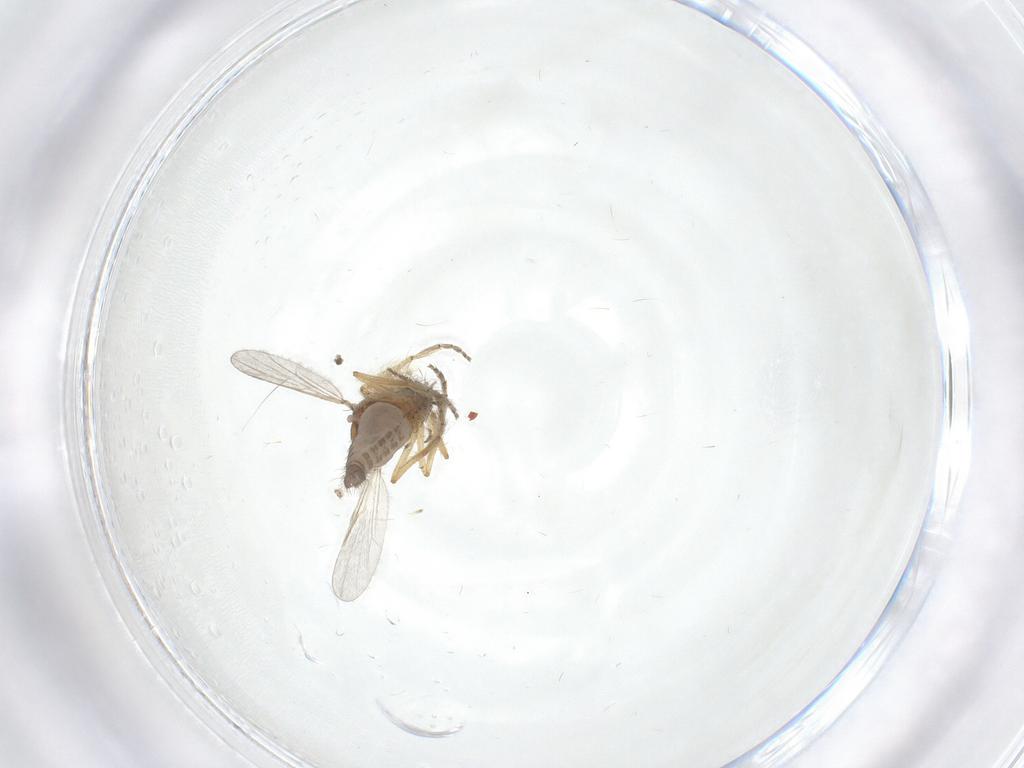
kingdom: Animalia
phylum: Arthropoda
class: Insecta
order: Diptera
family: Ceratopogonidae
